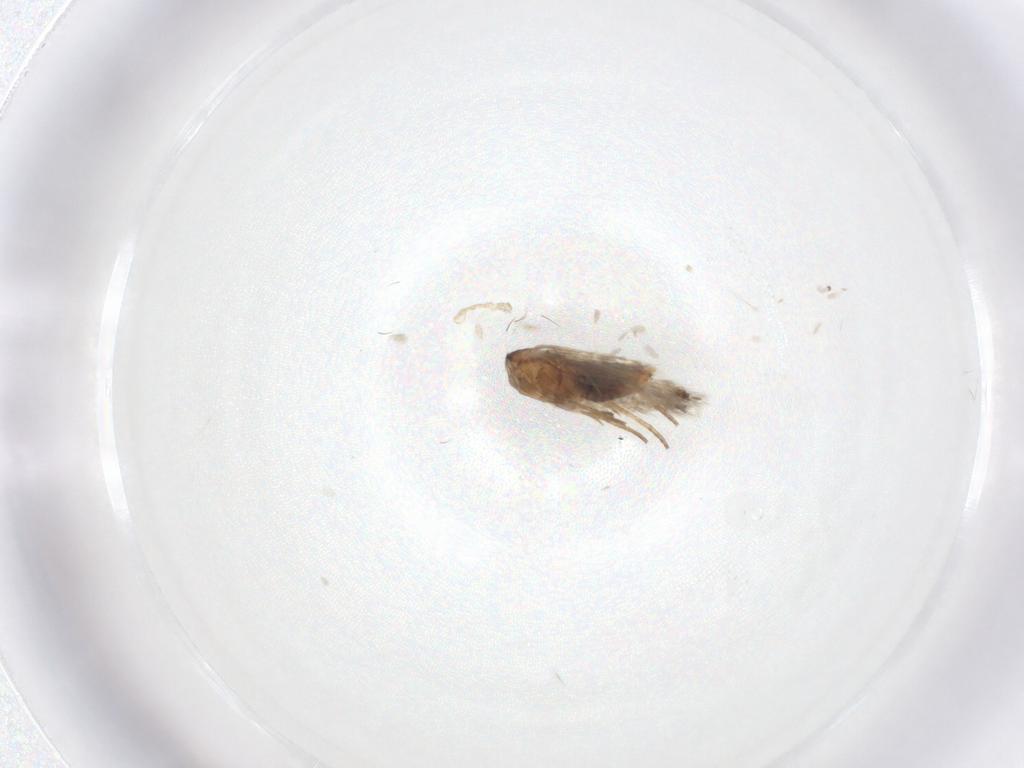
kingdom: Animalia
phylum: Arthropoda
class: Insecta
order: Lepidoptera
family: Heliozelidae
